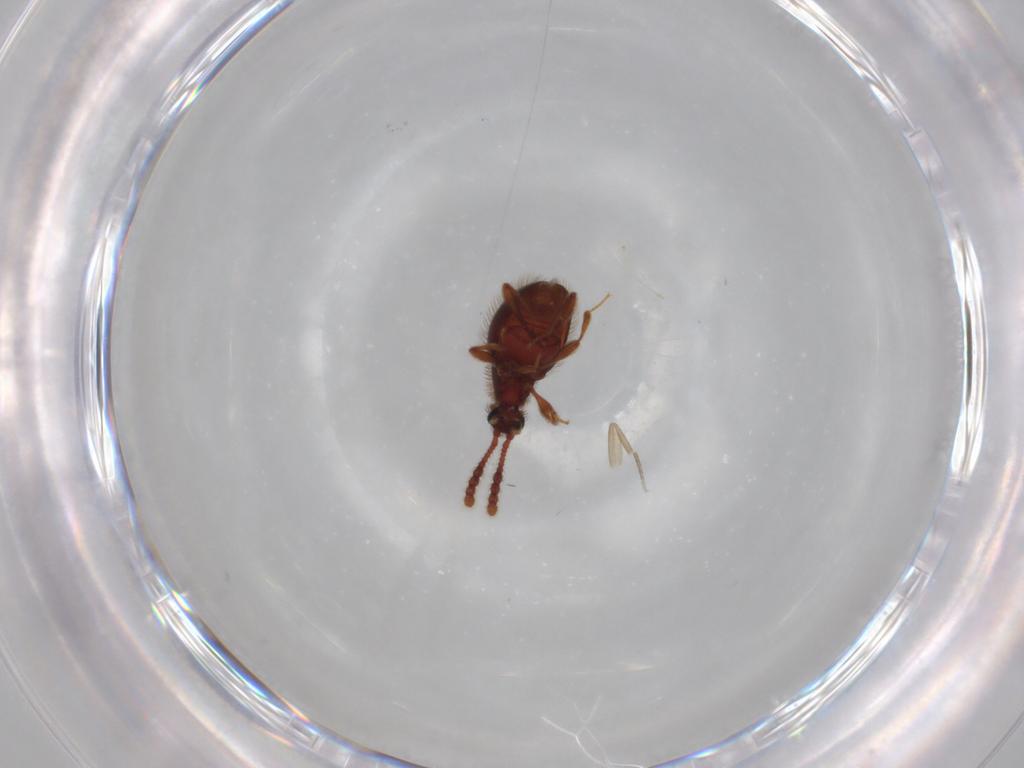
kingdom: Animalia
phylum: Arthropoda
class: Insecta
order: Coleoptera
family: Staphylinidae
